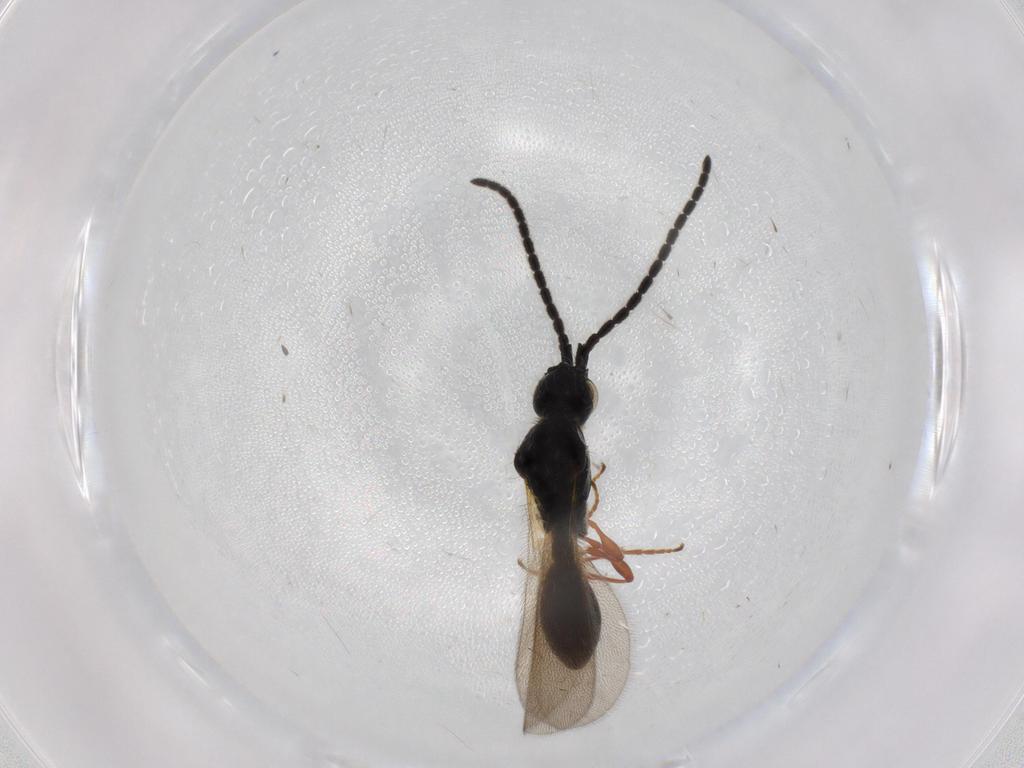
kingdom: Animalia
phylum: Arthropoda
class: Insecta
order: Hymenoptera
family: Diapriidae
